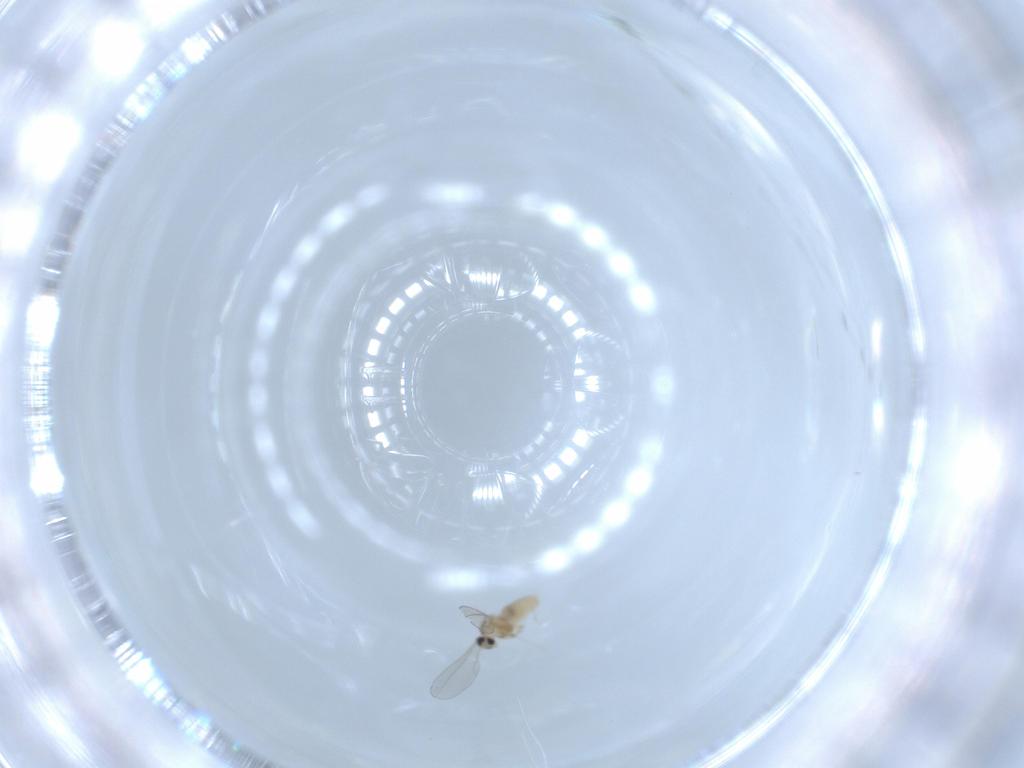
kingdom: Animalia
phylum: Arthropoda
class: Insecta
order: Diptera
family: Cecidomyiidae
